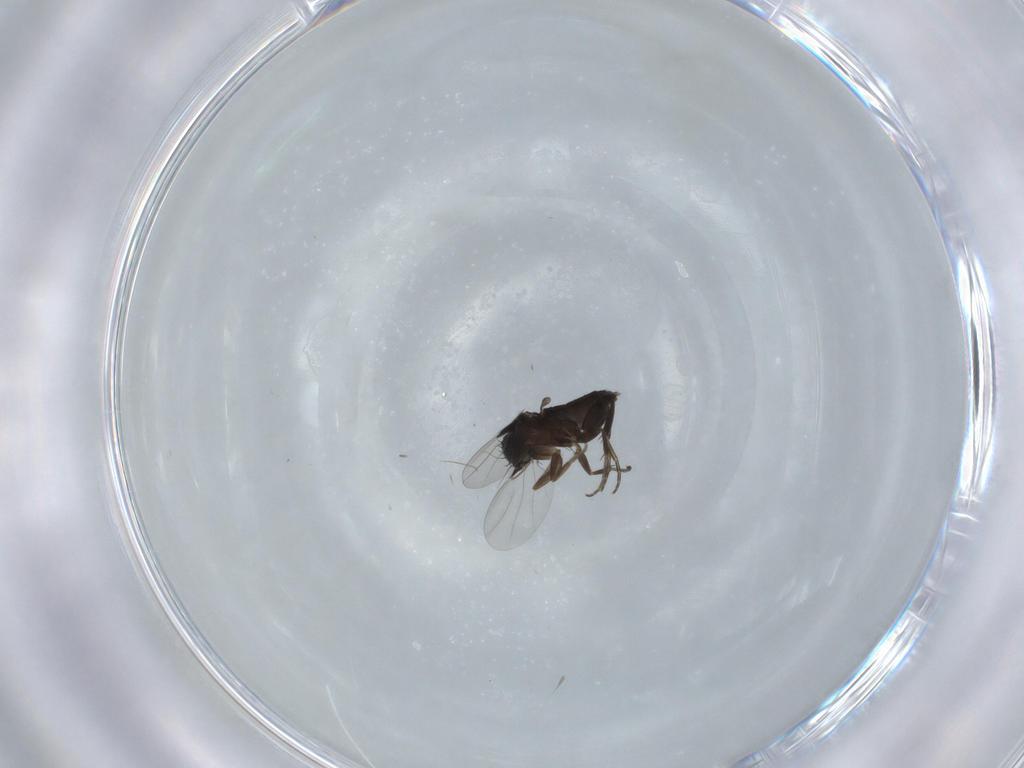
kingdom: Animalia
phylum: Arthropoda
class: Insecta
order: Diptera
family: Phoridae
